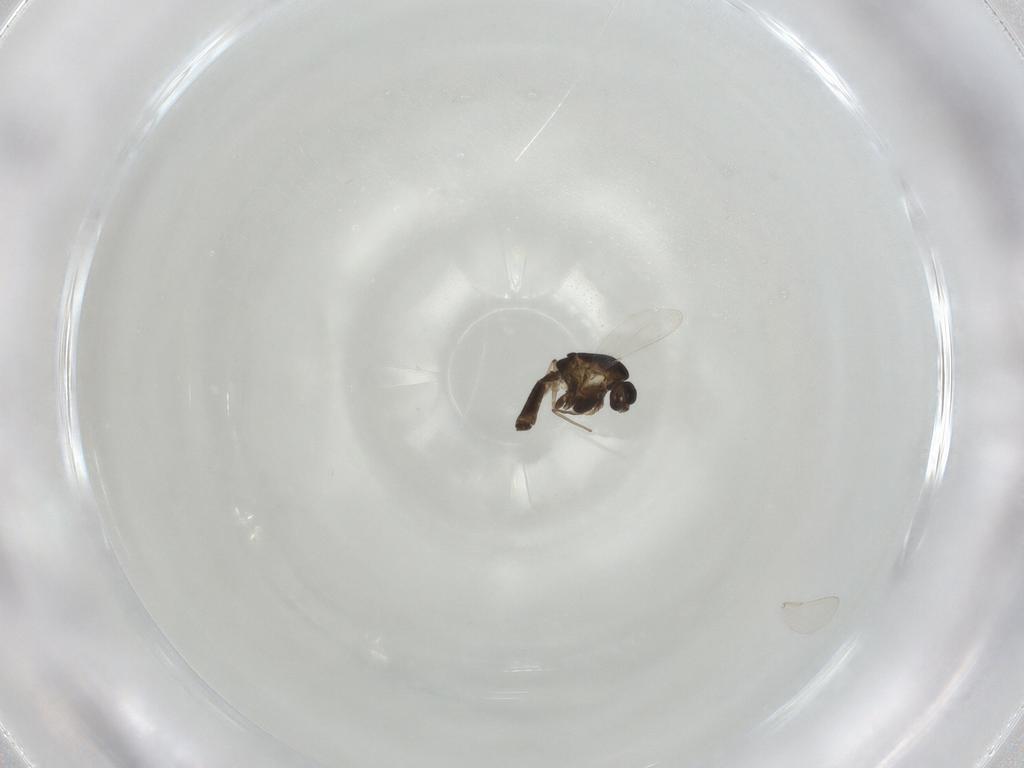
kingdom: Animalia
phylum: Arthropoda
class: Insecta
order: Diptera
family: Chironomidae
